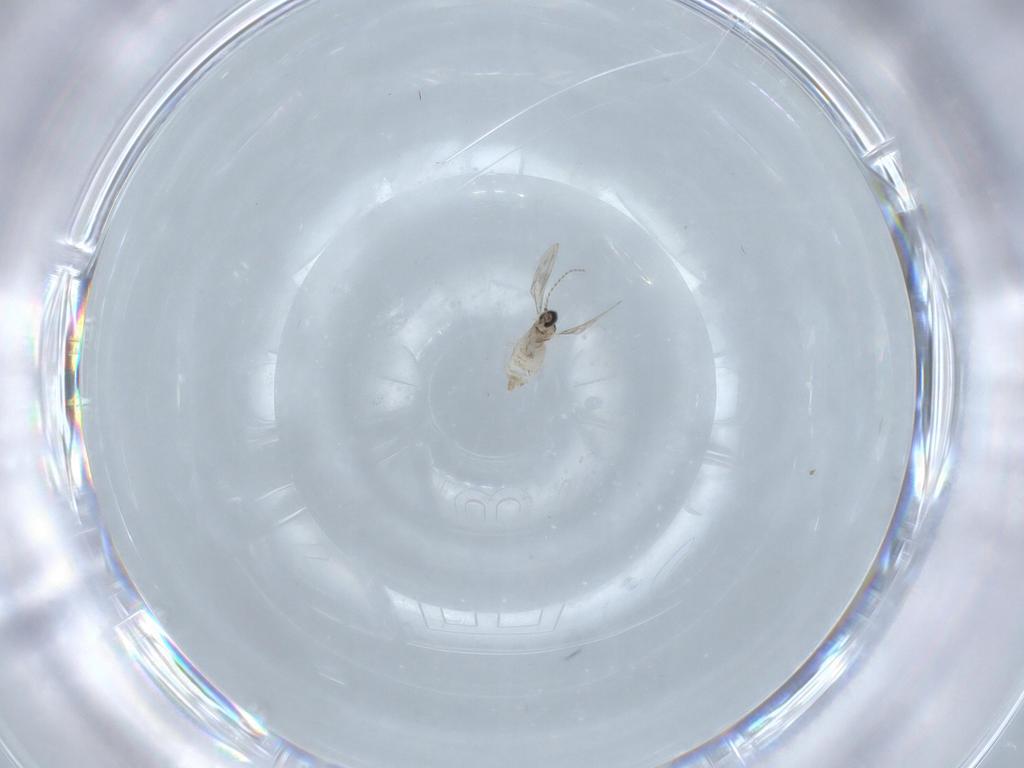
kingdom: Animalia
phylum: Arthropoda
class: Insecta
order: Diptera
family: Cecidomyiidae
